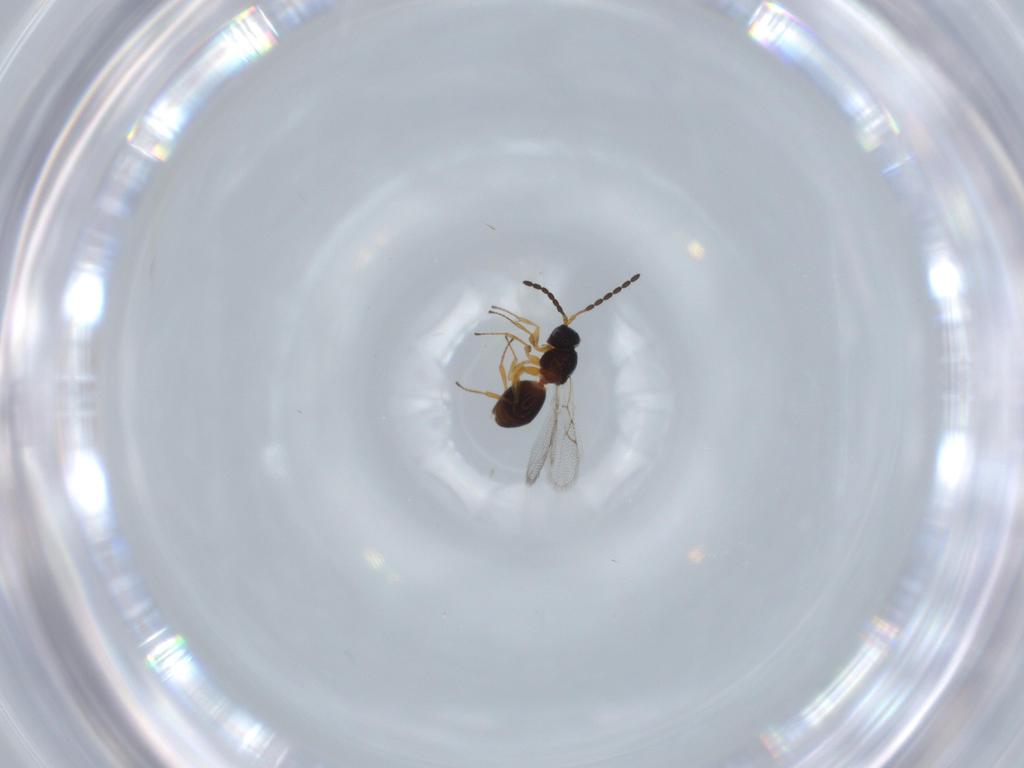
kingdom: Animalia
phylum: Arthropoda
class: Insecta
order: Hymenoptera
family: Figitidae
